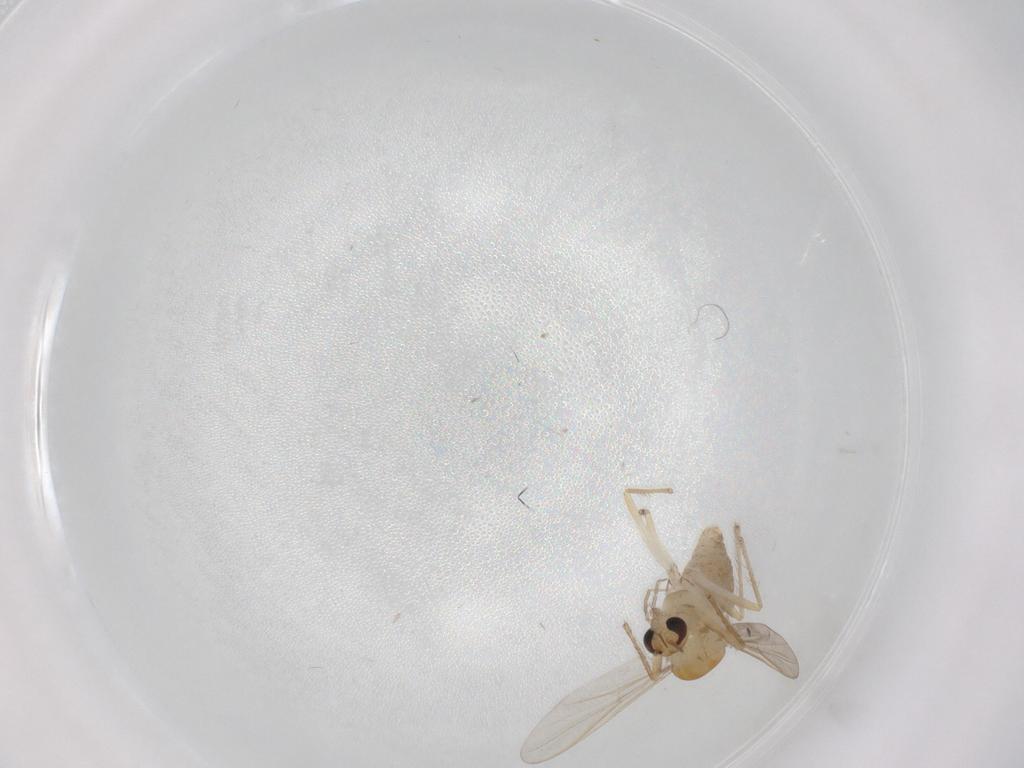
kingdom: Animalia
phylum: Arthropoda
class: Insecta
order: Diptera
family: Chironomidae
